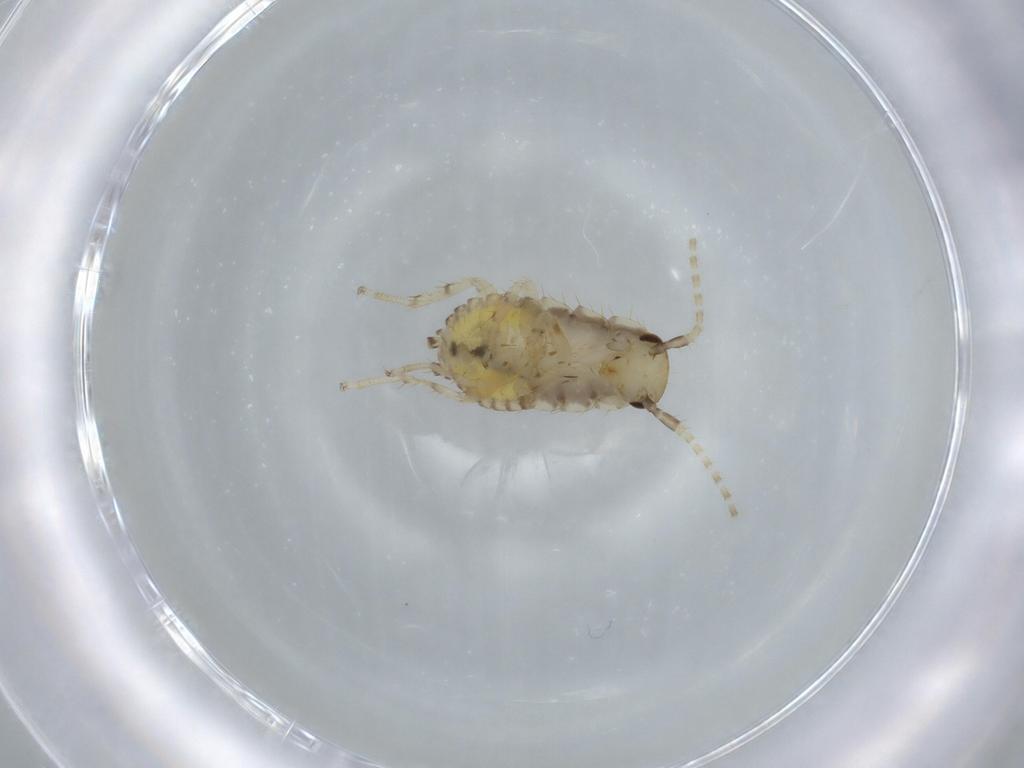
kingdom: Animalia
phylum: Arthropoda
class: Insecta
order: Blattodea
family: Ectobiidae
